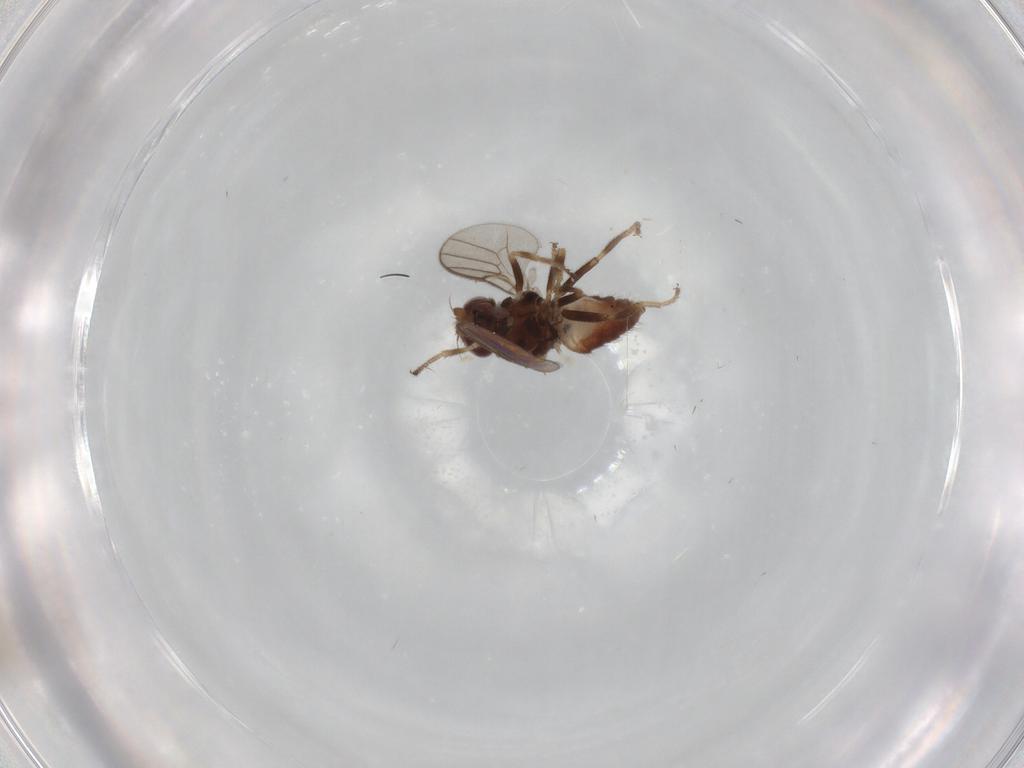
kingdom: Animalia
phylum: Arthropoda
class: Insecta
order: Diptera
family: Chloropidae
